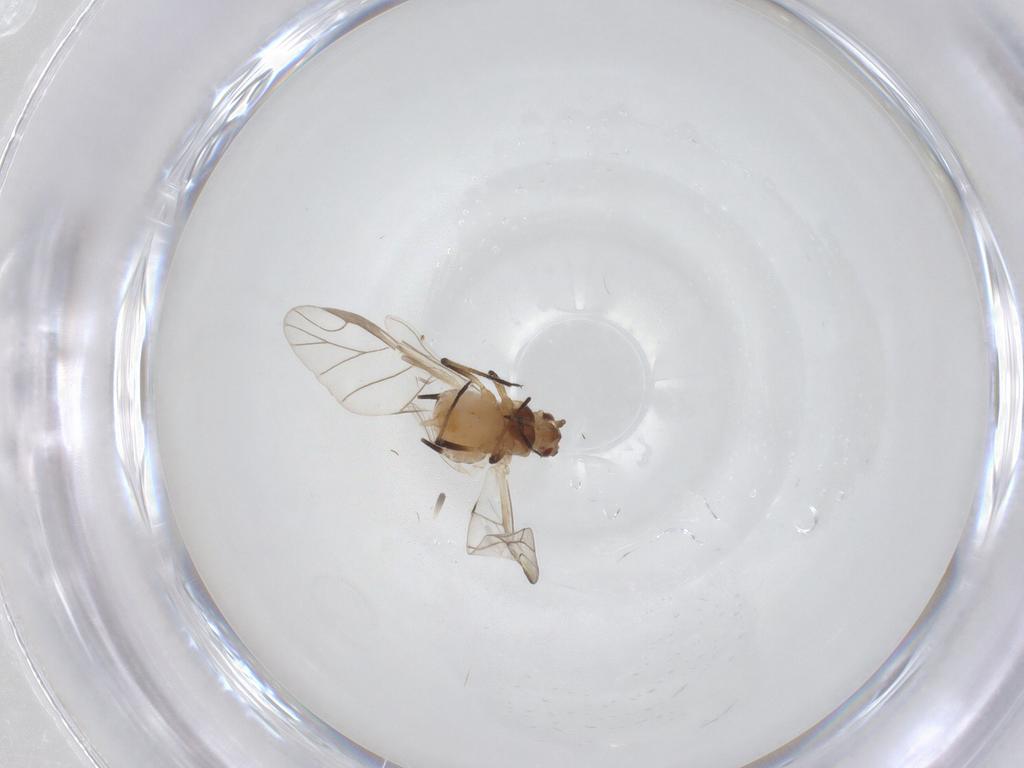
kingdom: Animalia
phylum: Arthropoda
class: Insecta
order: Hemiptera
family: Aphididae
